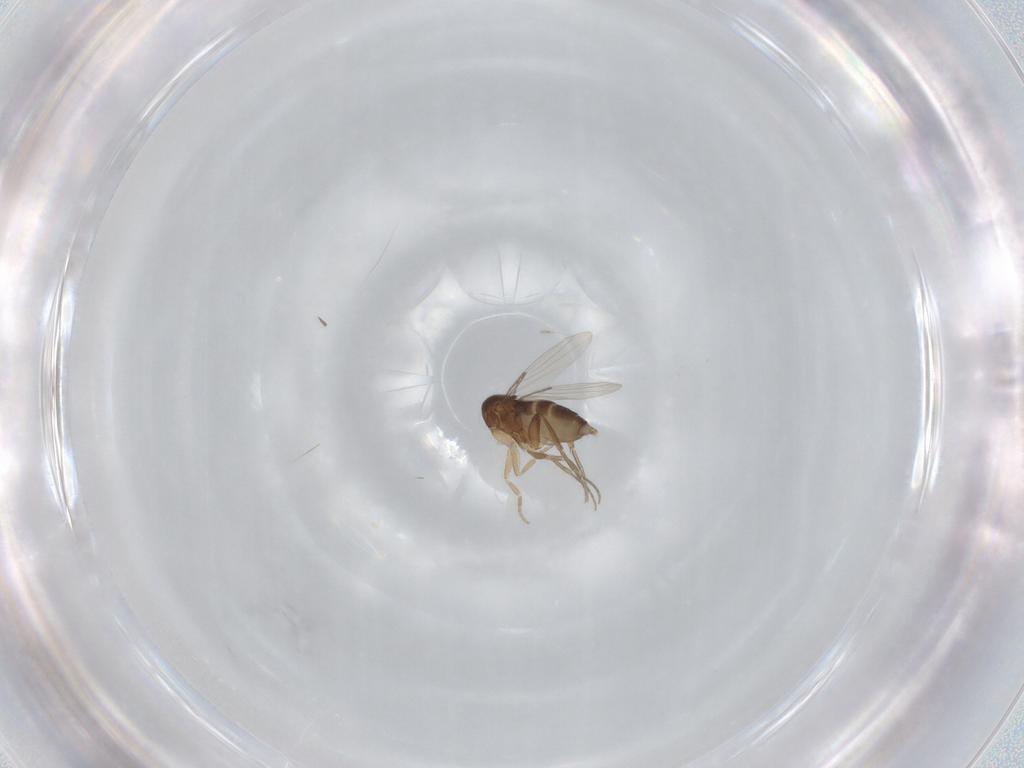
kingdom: Animalia
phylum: Arthropoda
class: Insecta
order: Diptera
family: Phoridae
